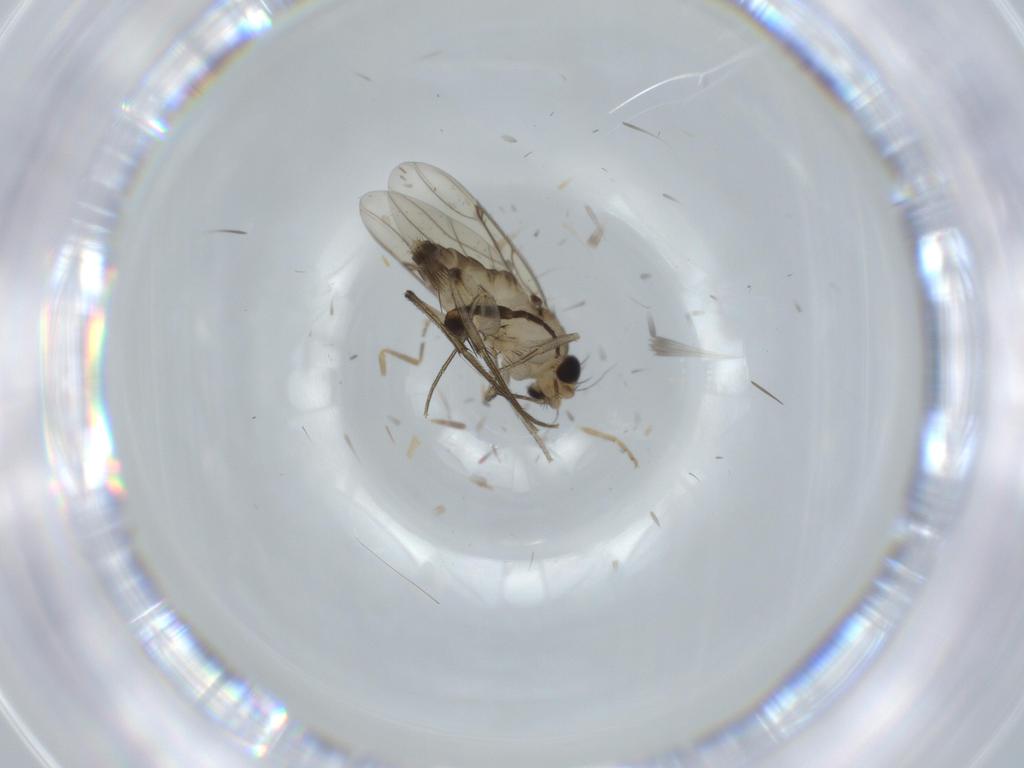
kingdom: Animalia
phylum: Arthropoda
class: Insecta
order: Diptera
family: Phoridae
